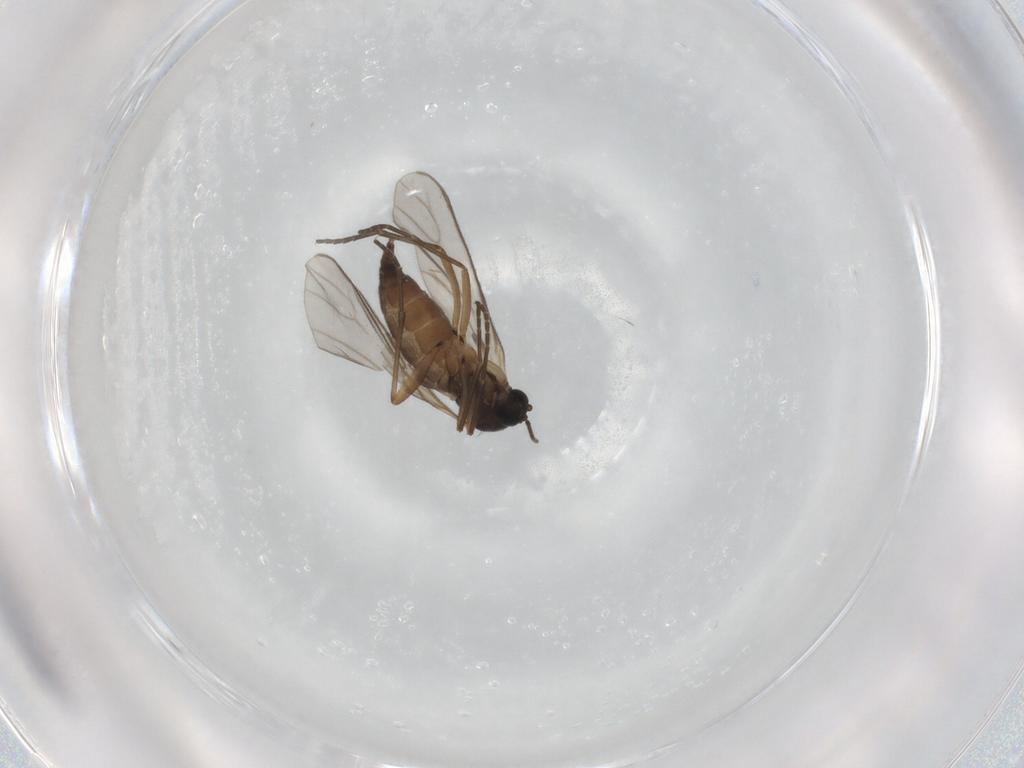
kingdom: Animalia
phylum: Arthropoda
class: Insecta
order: Diptera
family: Sciaridae
